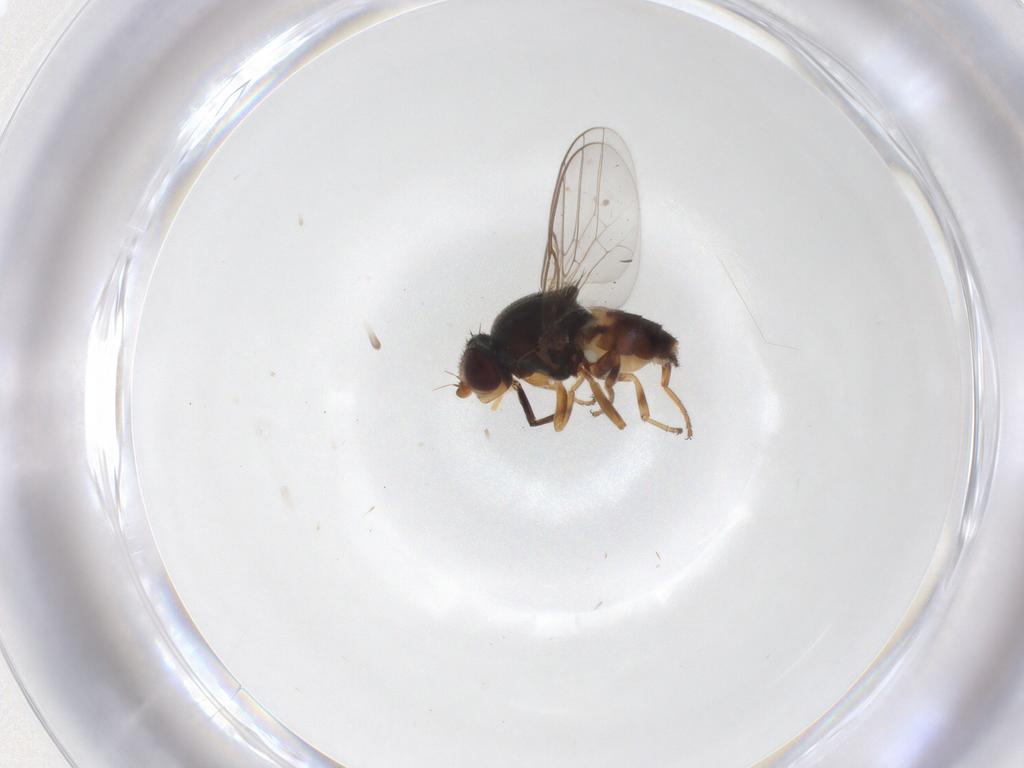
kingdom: Animalia
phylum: Arthropoda
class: Insecta
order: Diptera
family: Chloropidae
